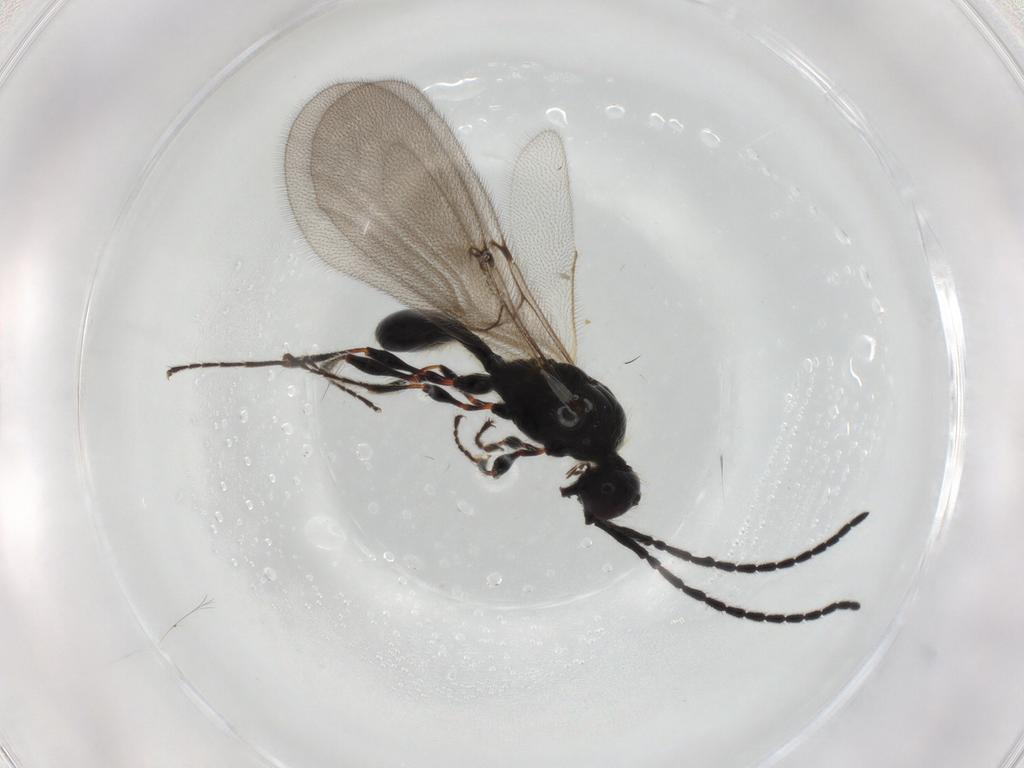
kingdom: Animalia
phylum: Arthropoda
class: Insecta
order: Hymenoptera
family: Diapriidae
